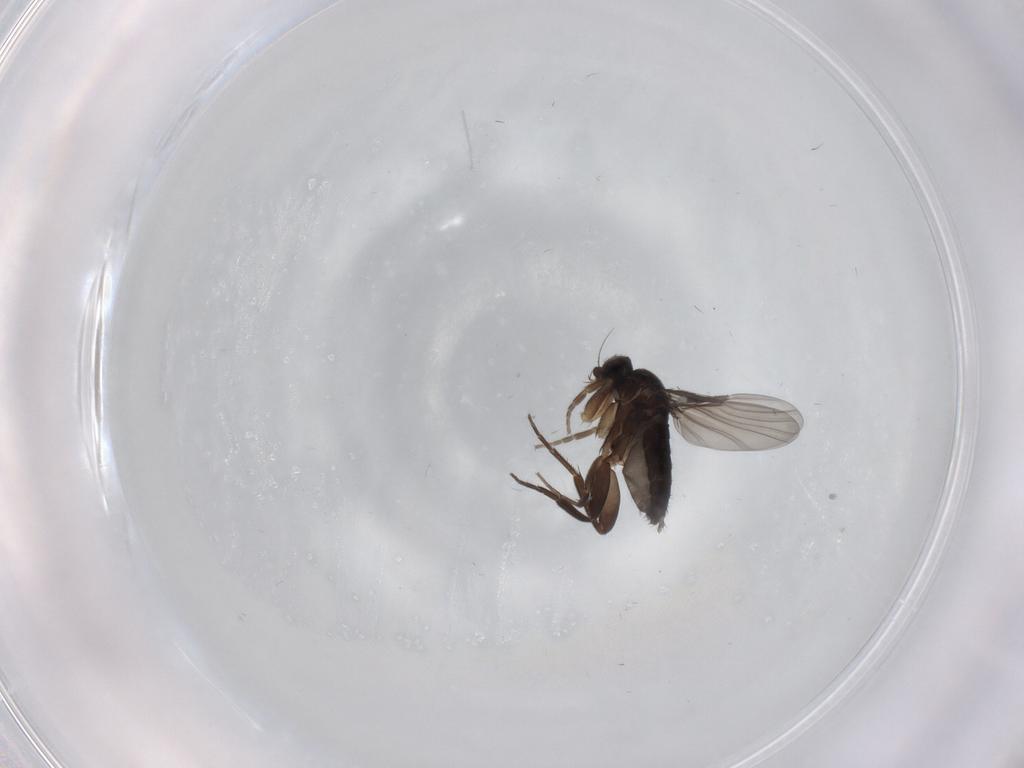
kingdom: Animalia
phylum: Arthropoda
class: Insecta
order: Diptera
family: Phoridae
